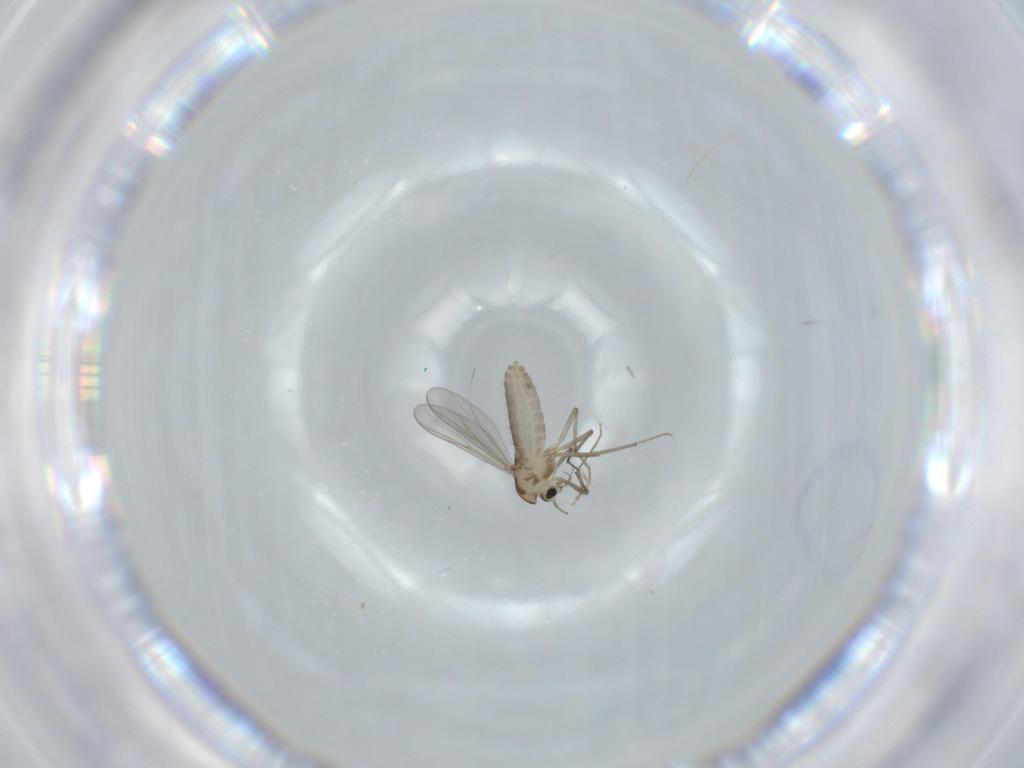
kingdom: Animalia
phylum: Arthropoda
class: Insecta
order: Diptera
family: Chironomidae
